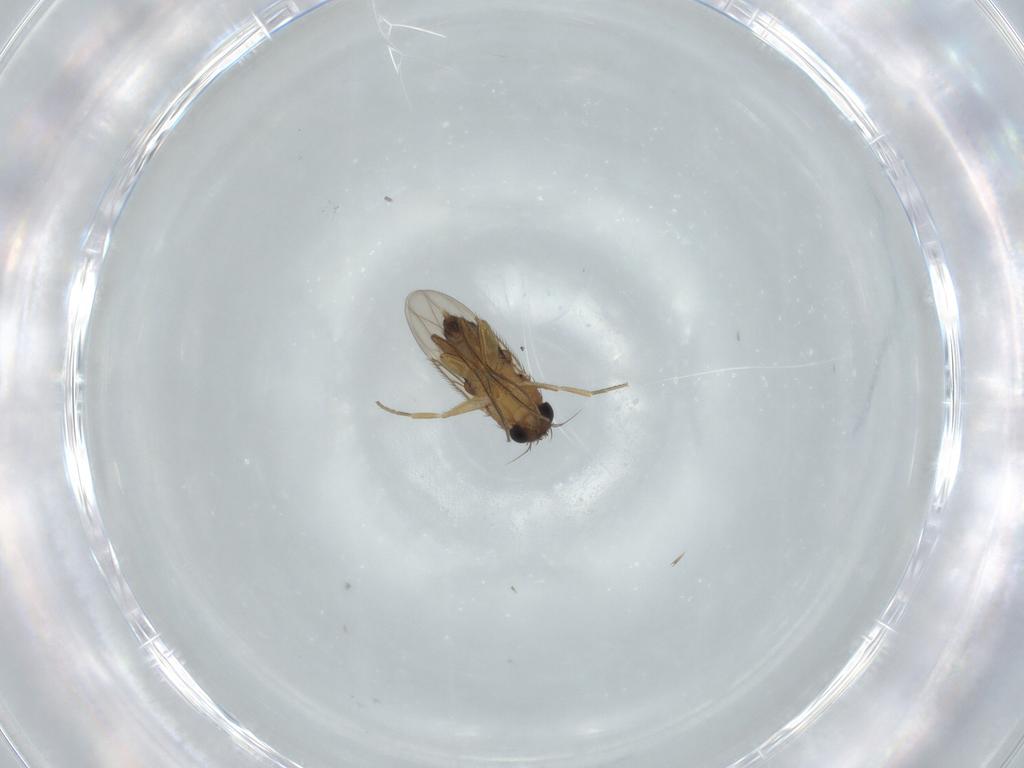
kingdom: Animalia
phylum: Arthropoda
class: Insecta
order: Diptera
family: Phoridae
